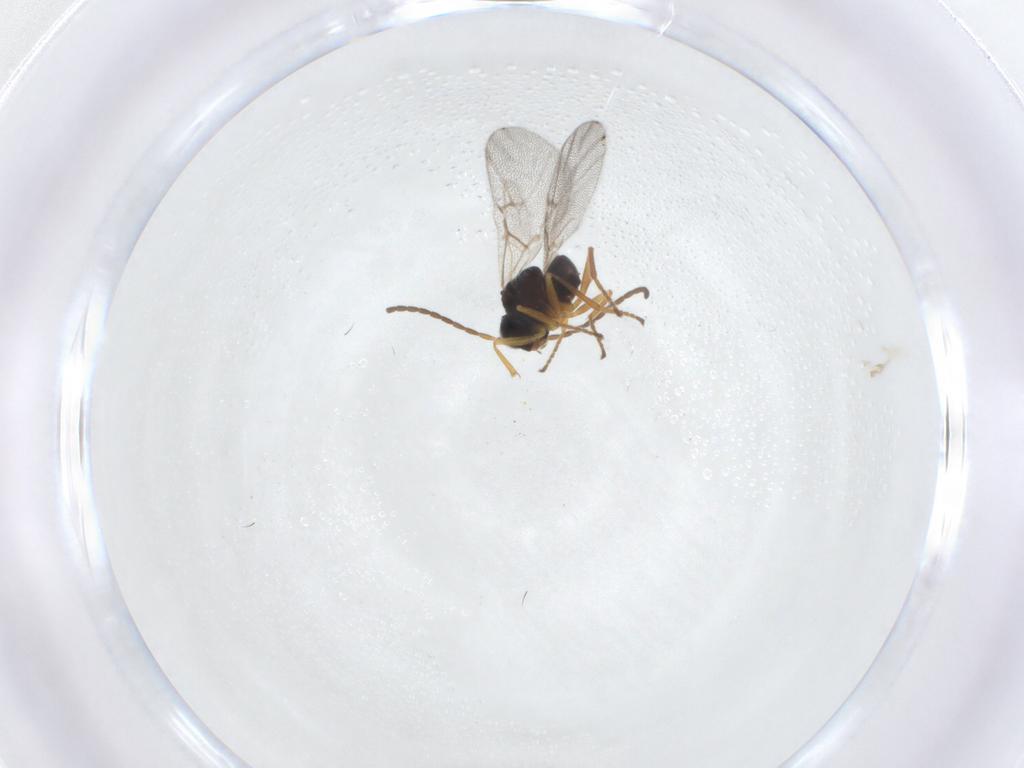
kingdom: Animalia
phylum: Arthropoda
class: Insecta
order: Hymenoptera
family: Cynipidae
